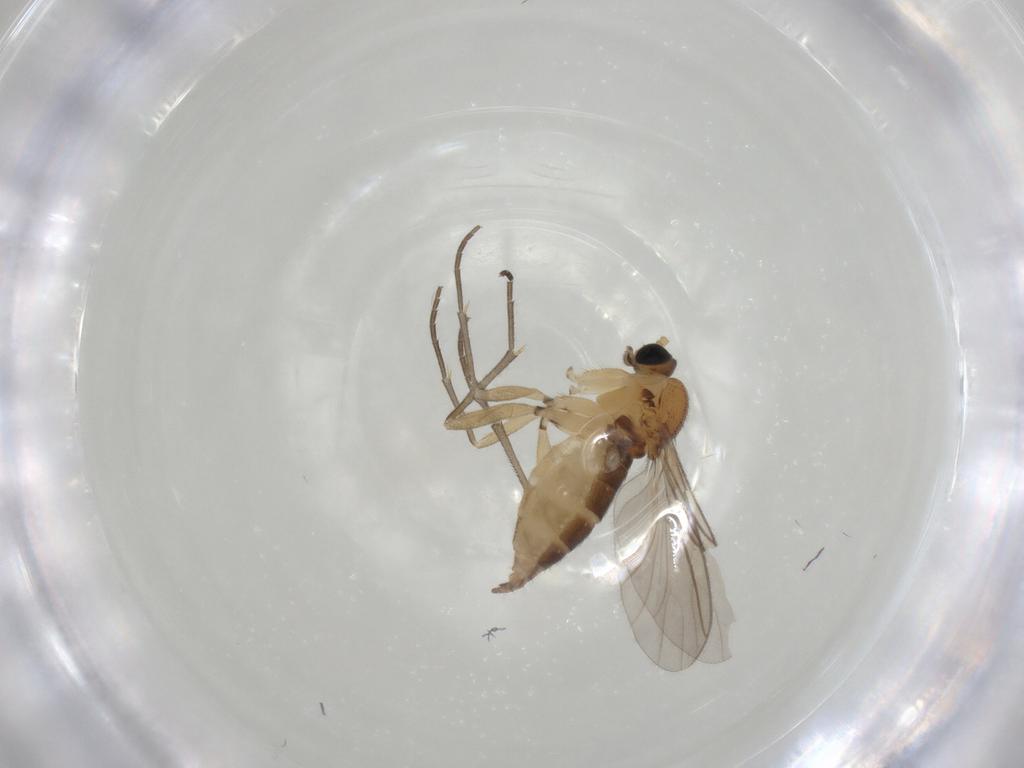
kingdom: Animalia
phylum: Arthropoda
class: Insecta
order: Diptera
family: Sciaridae
